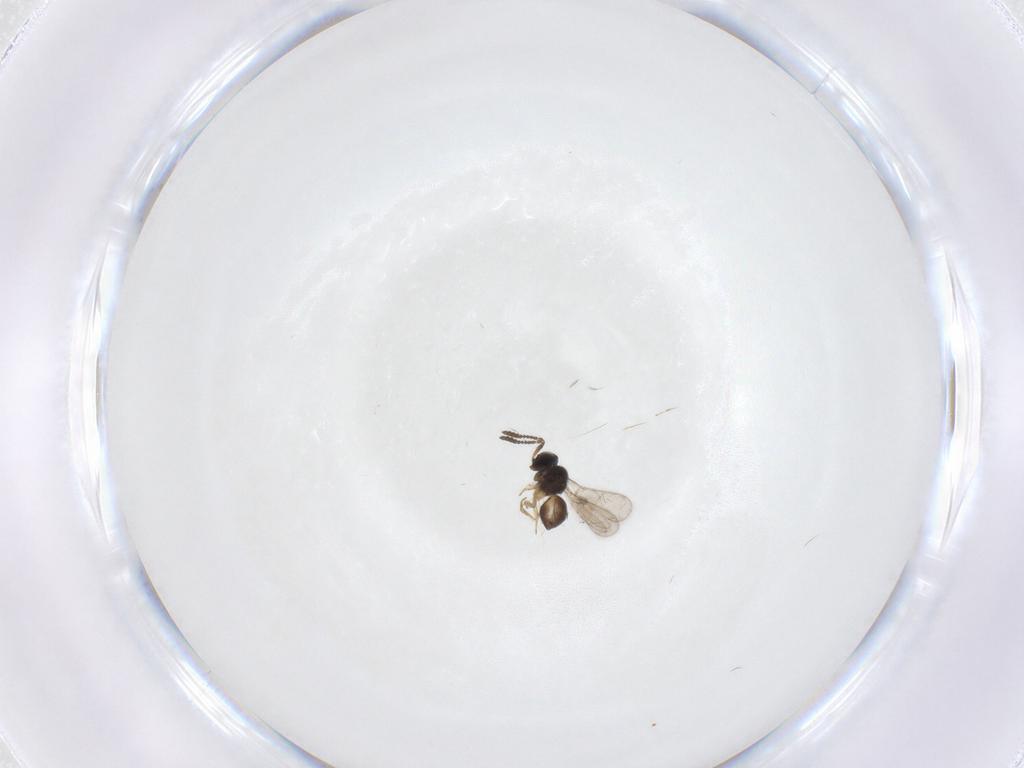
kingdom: Animalia
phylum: Arthropoda
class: Insecta
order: Hymenoptera
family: Scelionidae
